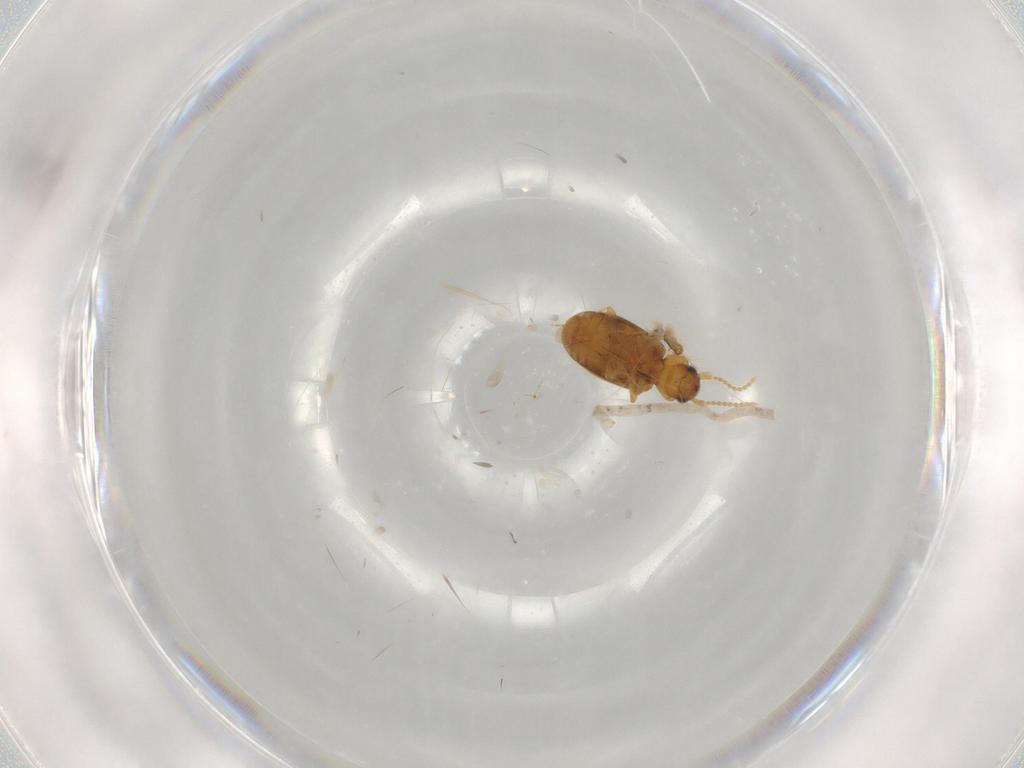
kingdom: Animalia
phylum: Arthropoda
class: Insecta
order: Coleoptera
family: Carabidae
